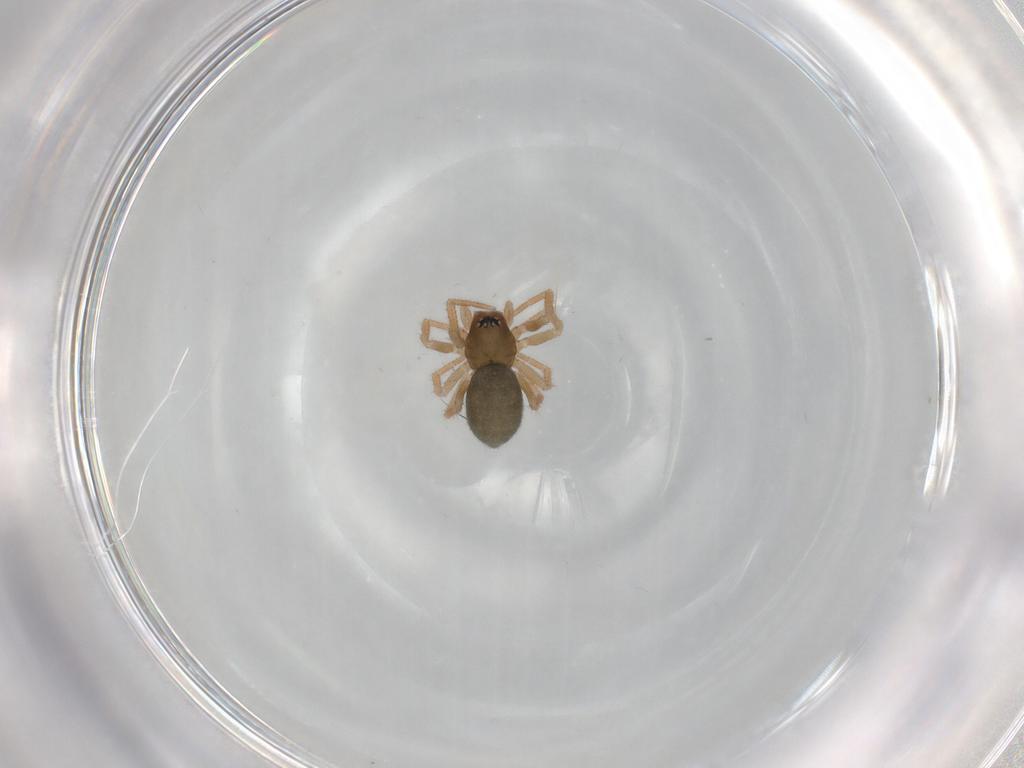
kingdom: Animalia
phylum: Arthropoda
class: Arachnida
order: Araneae
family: Linyphiidae
